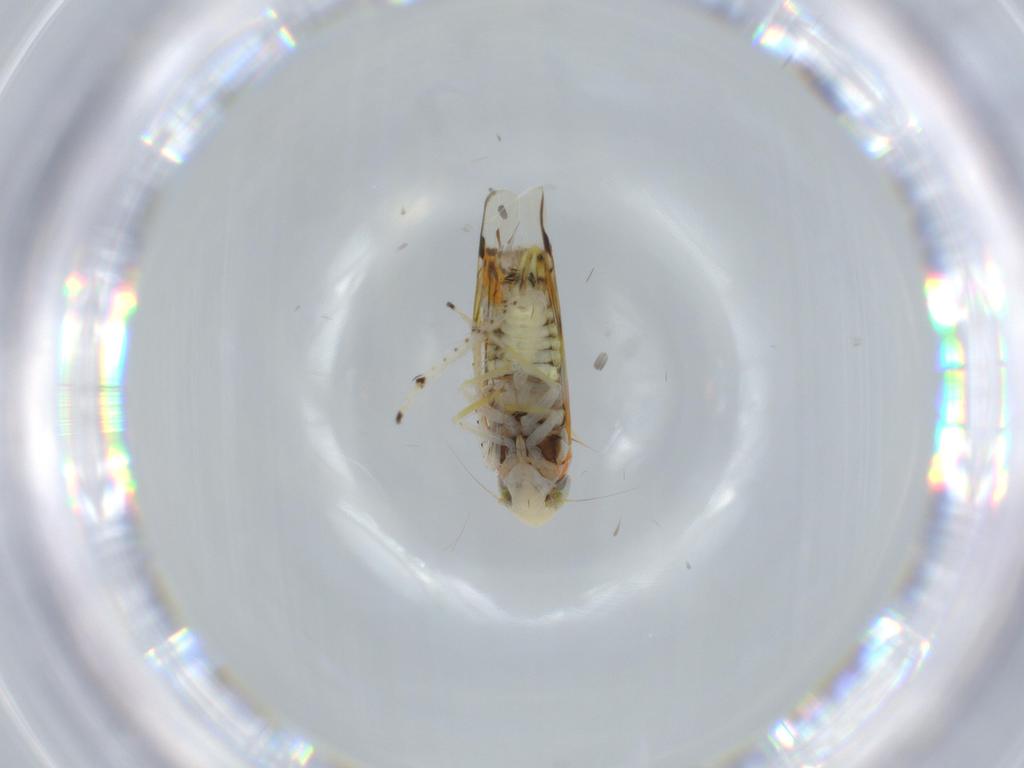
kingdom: Animalia
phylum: Arthropoda
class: Insecta
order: Hemiptera
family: Cicadellidae
